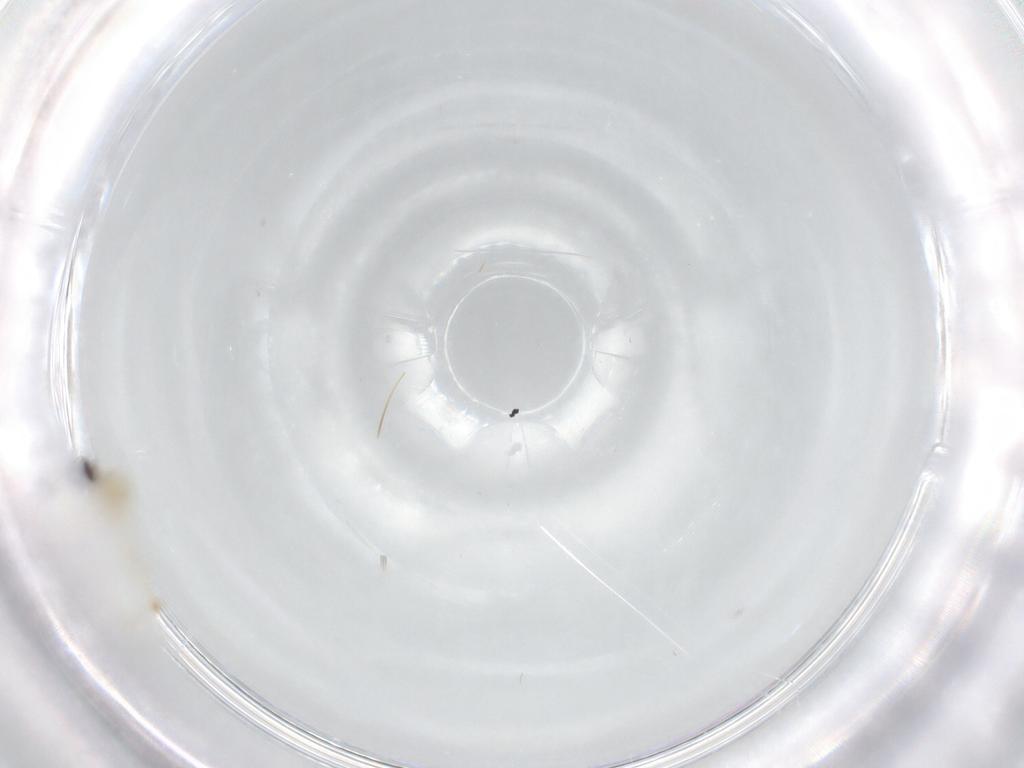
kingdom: Animalia
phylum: Arthropoda
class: Insecta
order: Diptera
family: Cecidomyiidae
